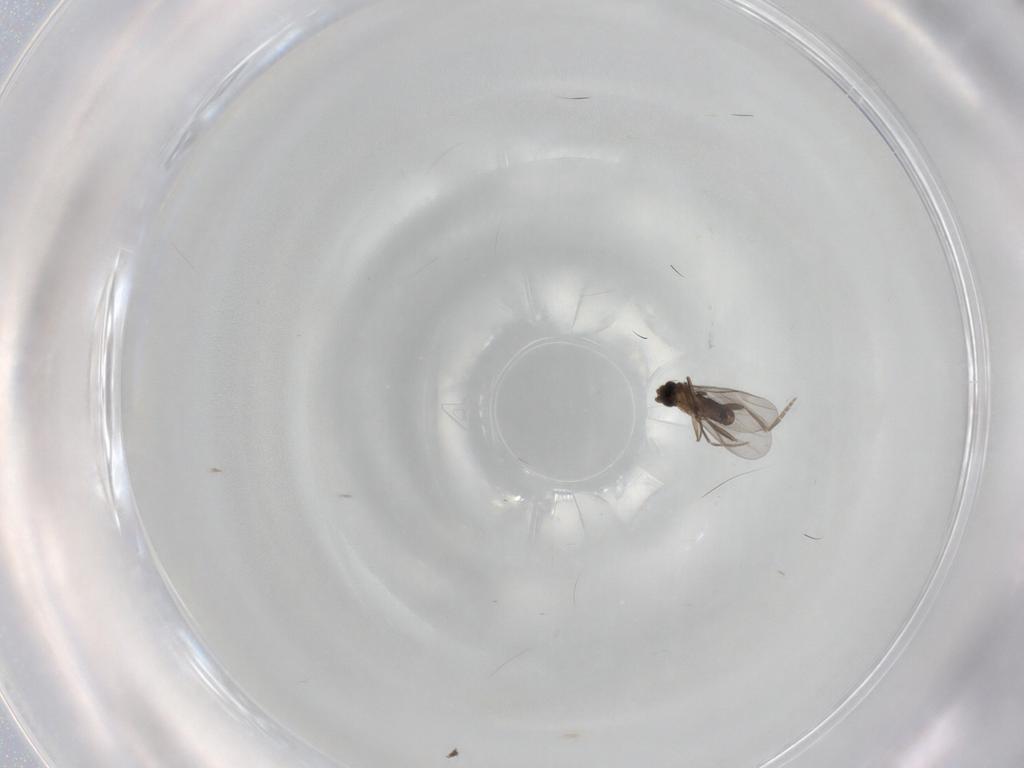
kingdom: Animalia
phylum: Arthropoda
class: Insecta
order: Diptera
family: Chironomidae
